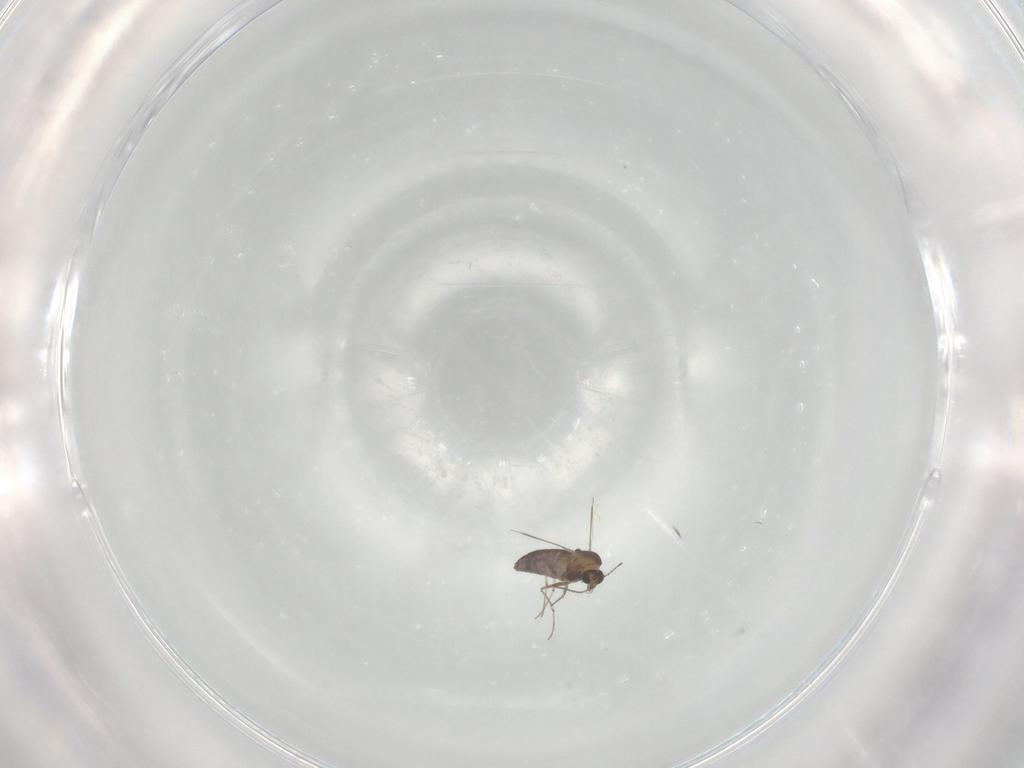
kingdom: Animalia
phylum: Arthropoda
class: Insecta
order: Diptera
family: Chironomidae
